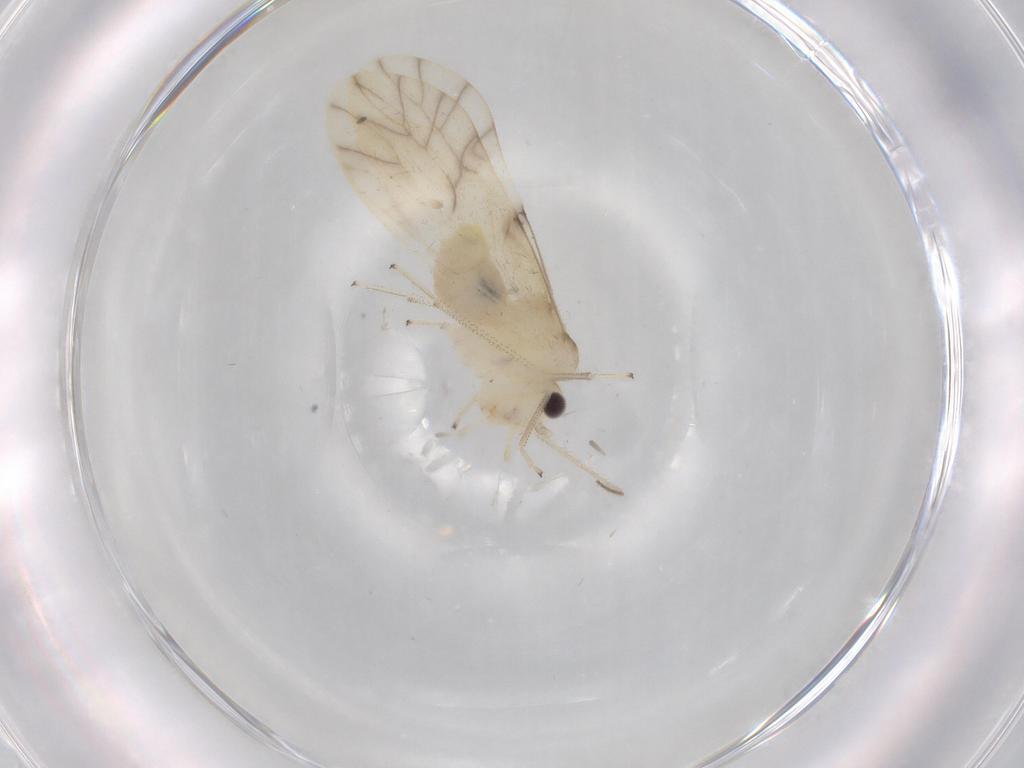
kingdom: Animalia
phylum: Arthropoda
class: Insecta
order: Psocodea
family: Caeciliusidae
